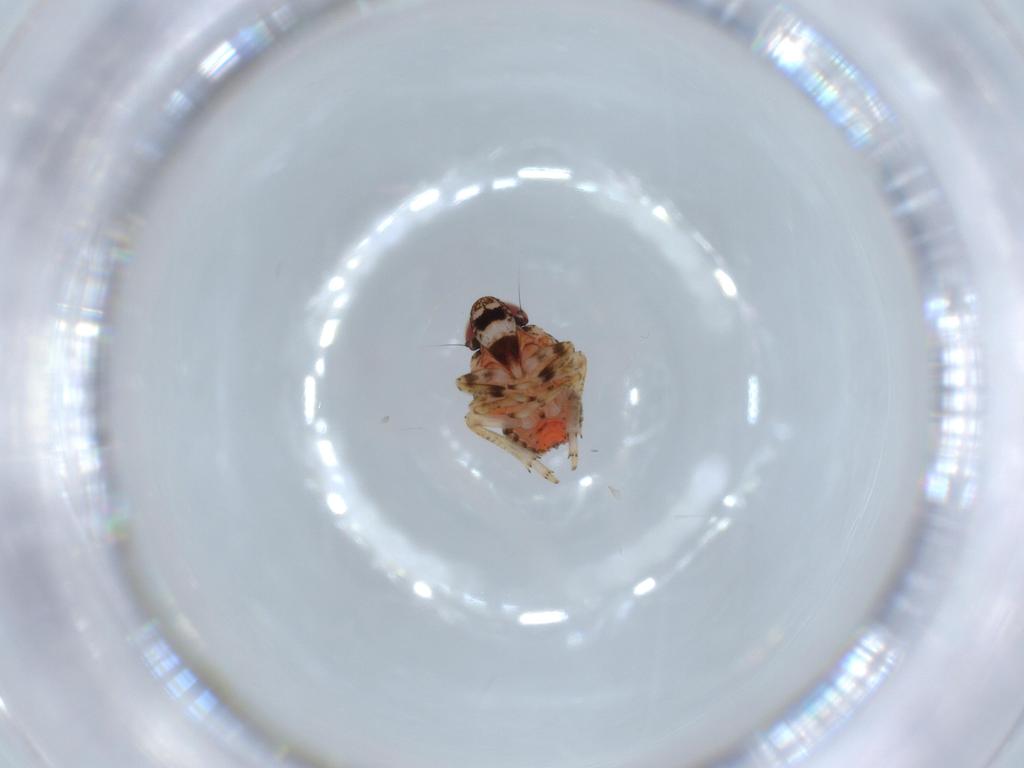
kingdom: Animalia
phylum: Arthropoda
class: Insecta
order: Hemiptera
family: Issidae
